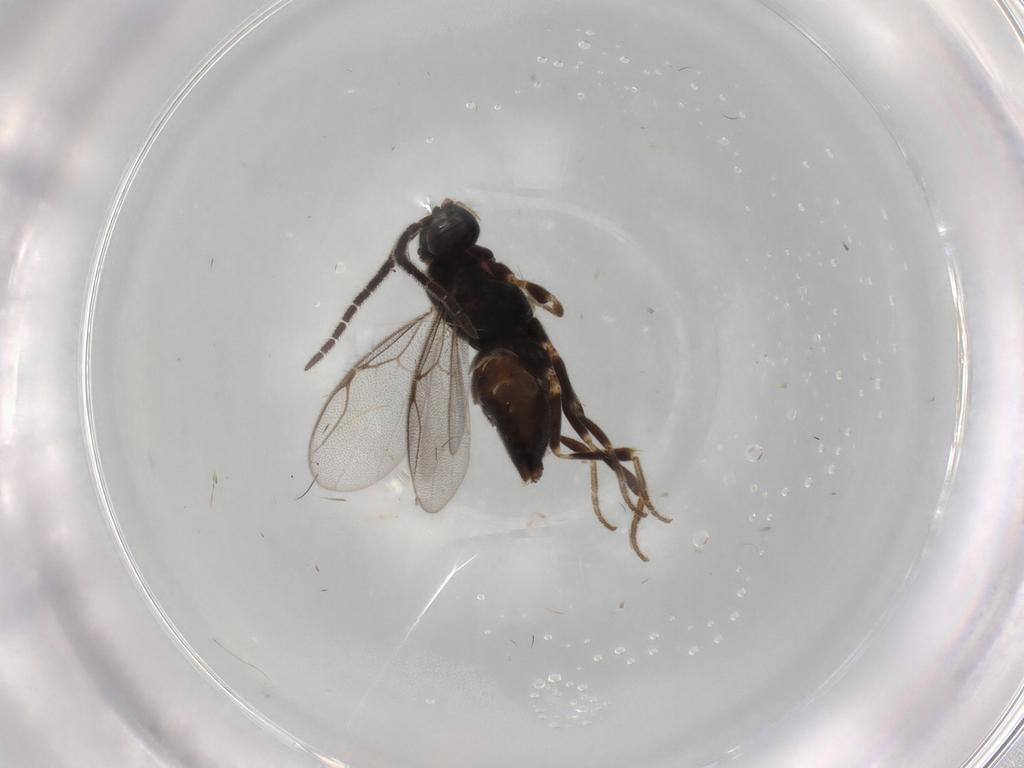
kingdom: Animalia
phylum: Arthropoda
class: Insecta
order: Hymenoptera
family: Dryinidae
